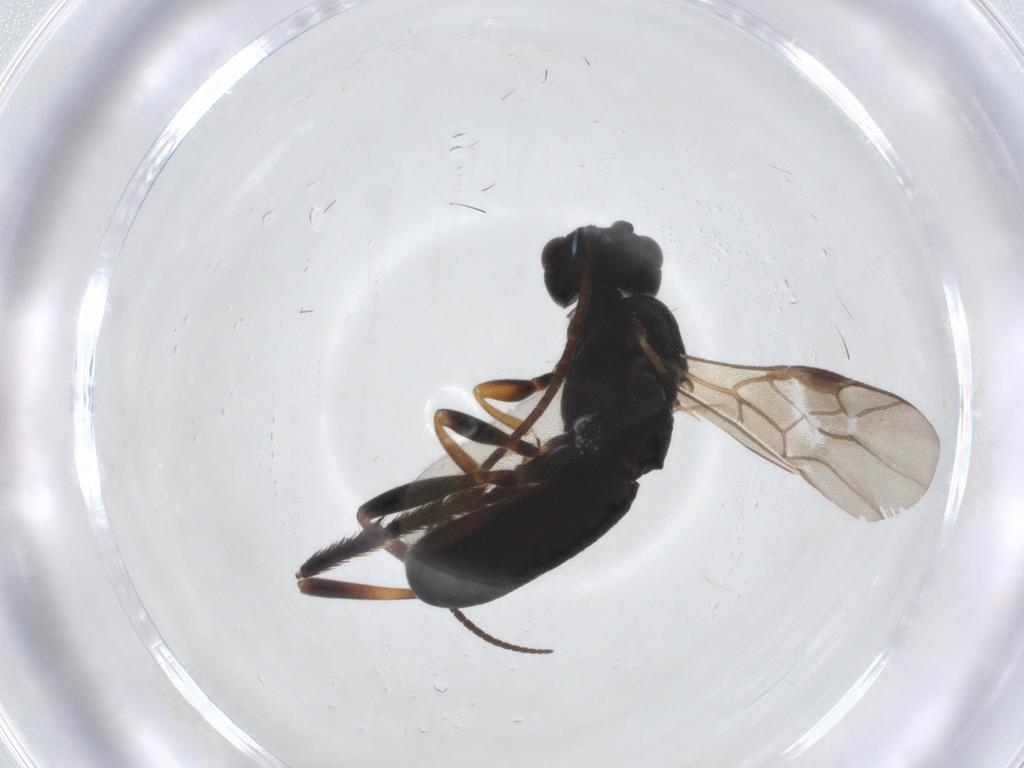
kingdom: Animalia
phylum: Arthropoda
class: Insecta
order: Hymenoptera
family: Braconidae
